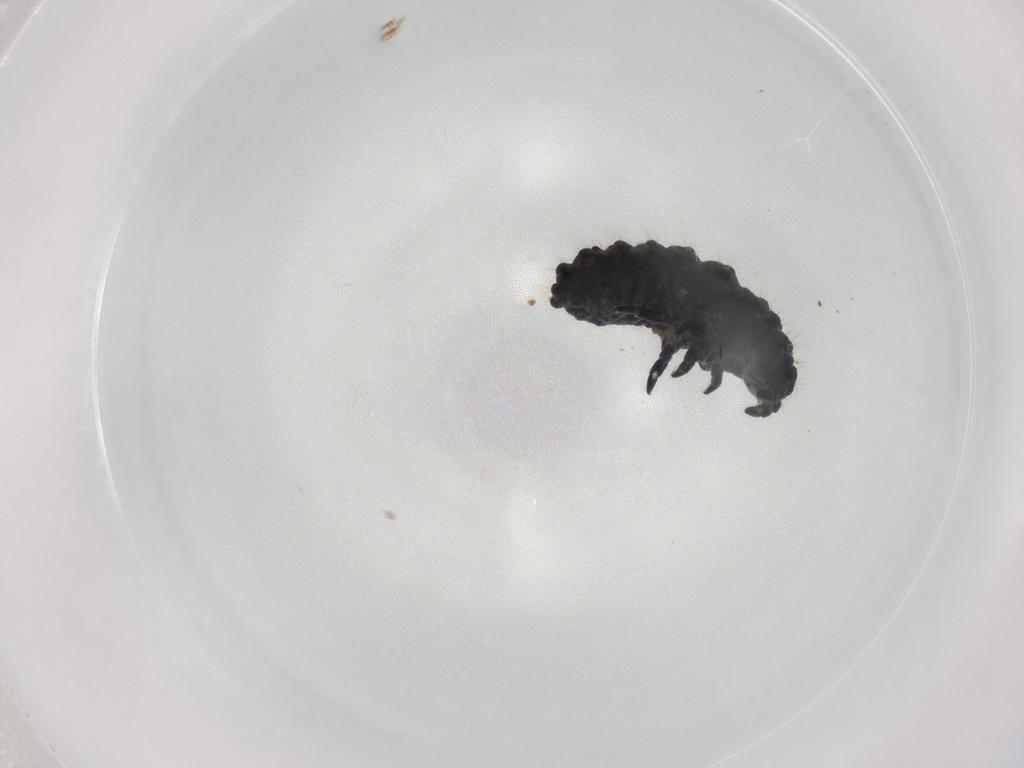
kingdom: Animalia
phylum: Arthropoda
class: Collembola
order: Poduromorpha
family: Neanuridae
